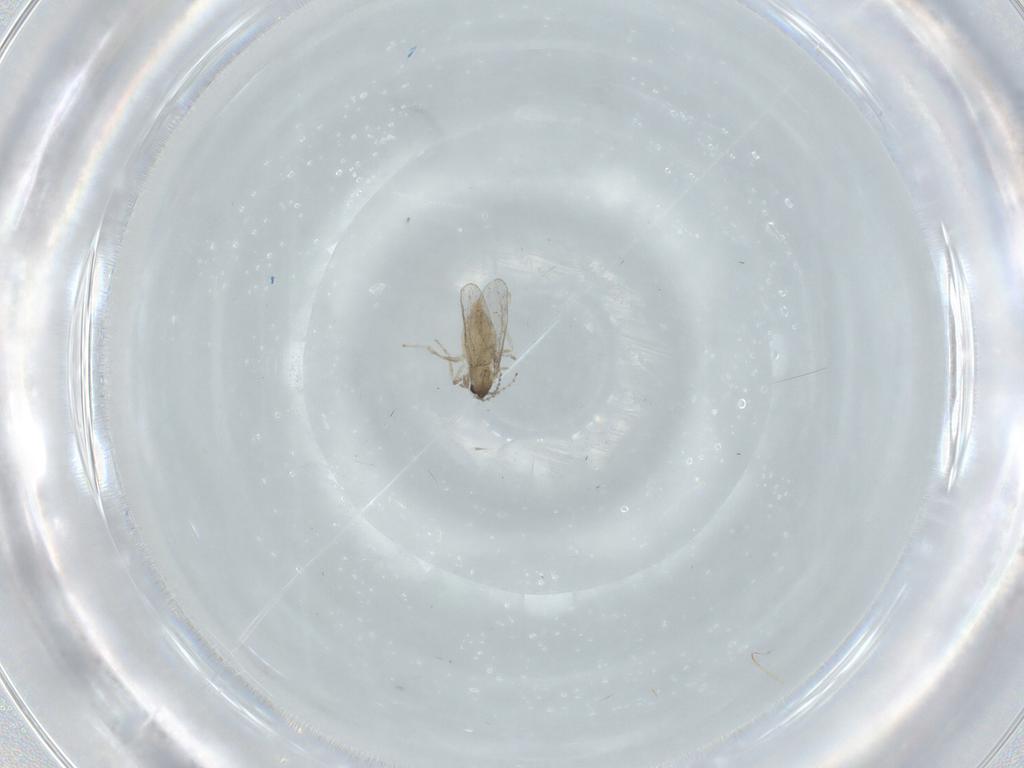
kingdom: Animalia
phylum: Arthropoda
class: Insecta
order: Diptera
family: Cecidomyiidae
